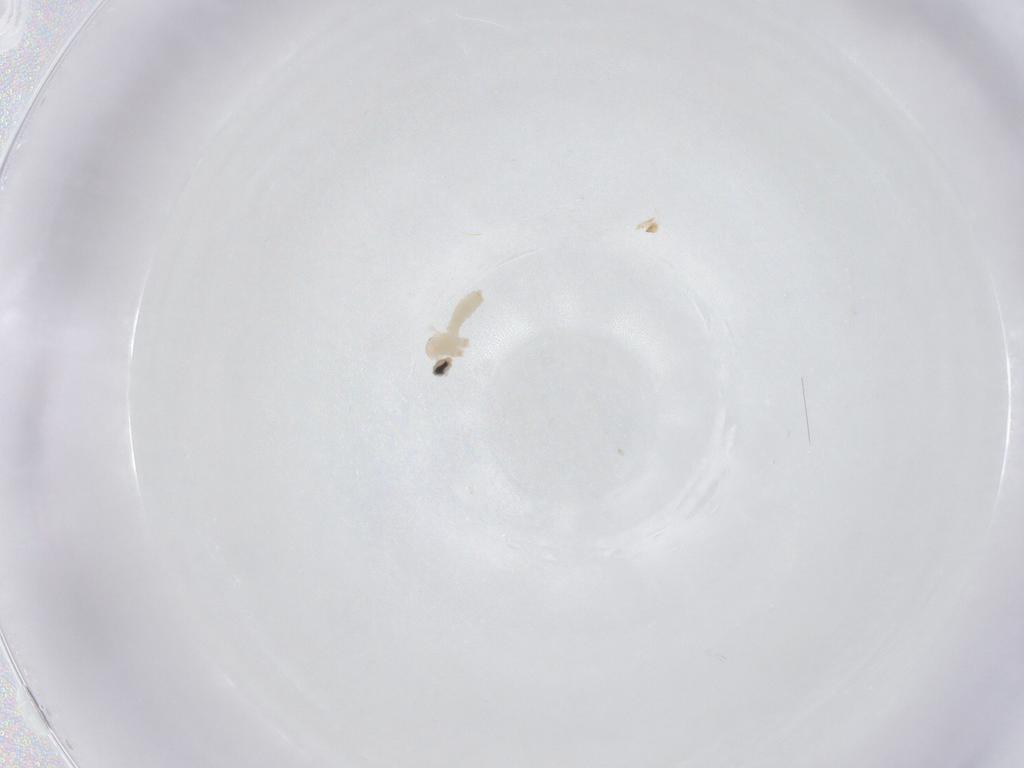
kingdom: Animalia
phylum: Arthropoda
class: Insecta
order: Diptera
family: Cecidomyiidae
